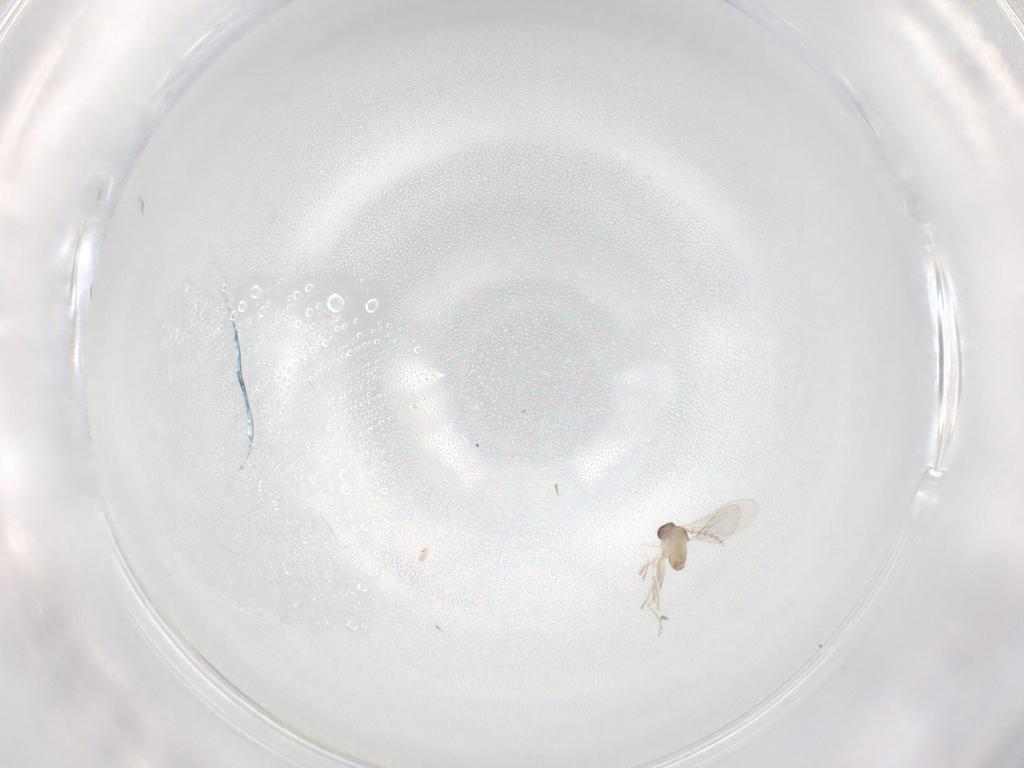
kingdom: Animalia
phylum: Arthropoda
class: Insecta
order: Diptera
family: Cecidomyiidae
